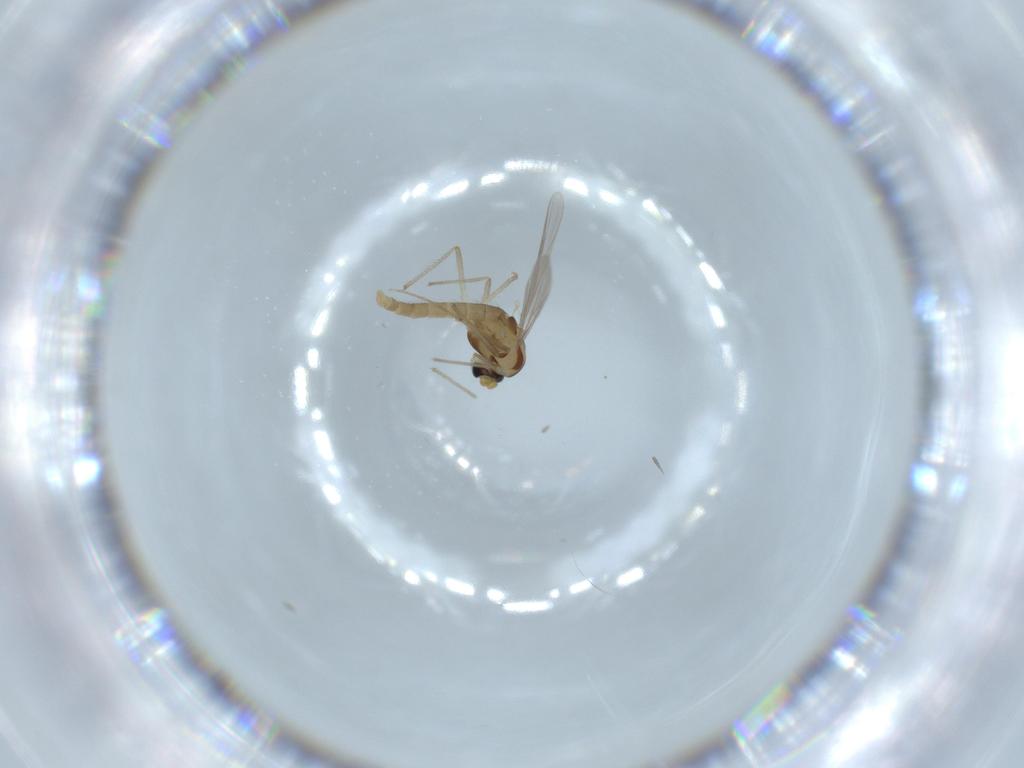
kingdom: Animalia
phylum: Arthropoda
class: Insecta
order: Diptera
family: Chironomidae
